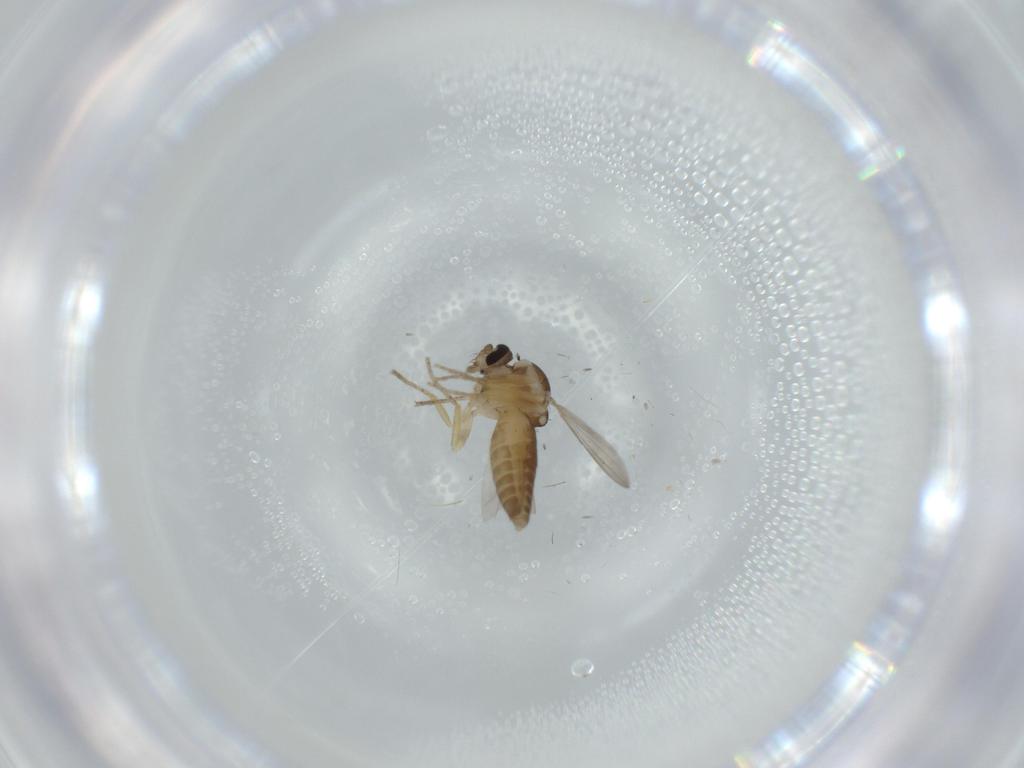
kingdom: Animalia
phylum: Arthropoda
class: Insecta
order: Diptera
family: Ceratopogonidae
